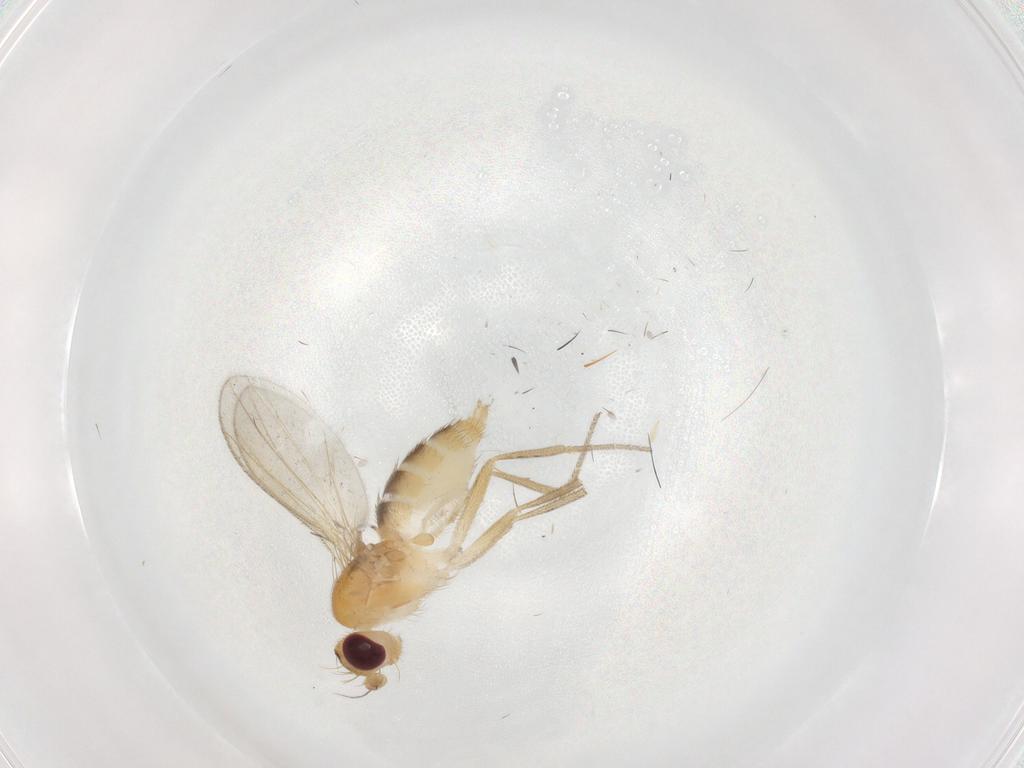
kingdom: Animalia
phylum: Arthropoda
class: Insecta
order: Diptera
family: Clusiidae
